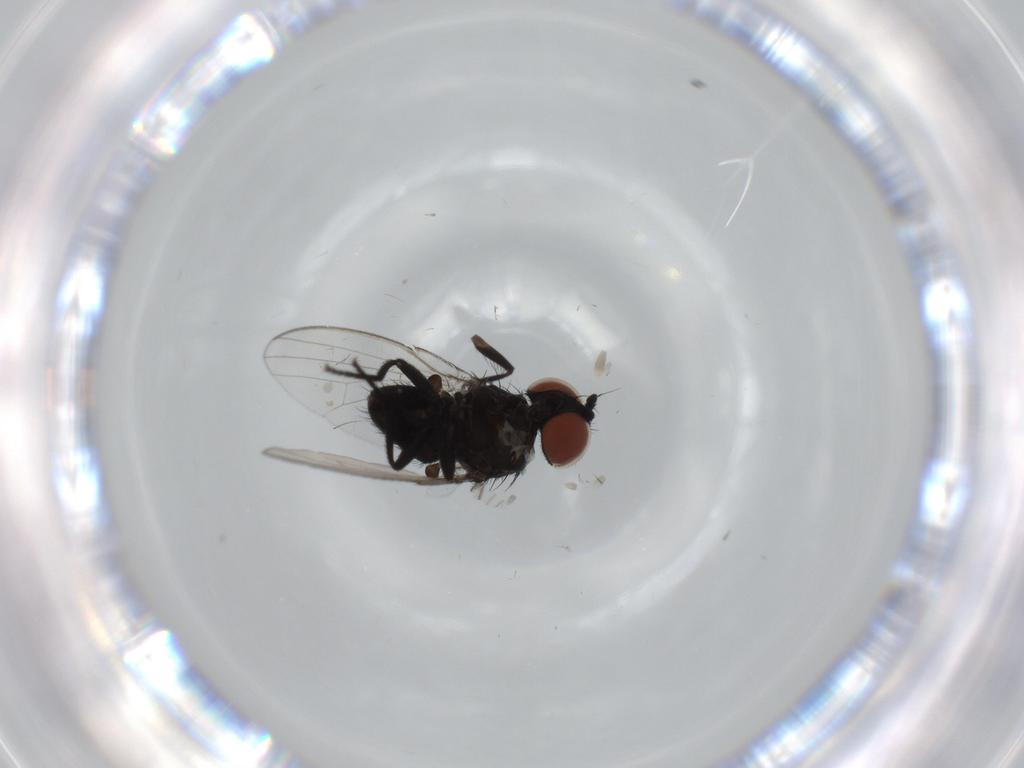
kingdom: Animalia
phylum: Arthropoda
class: Insecta
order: Diptera
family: Milichiidae
